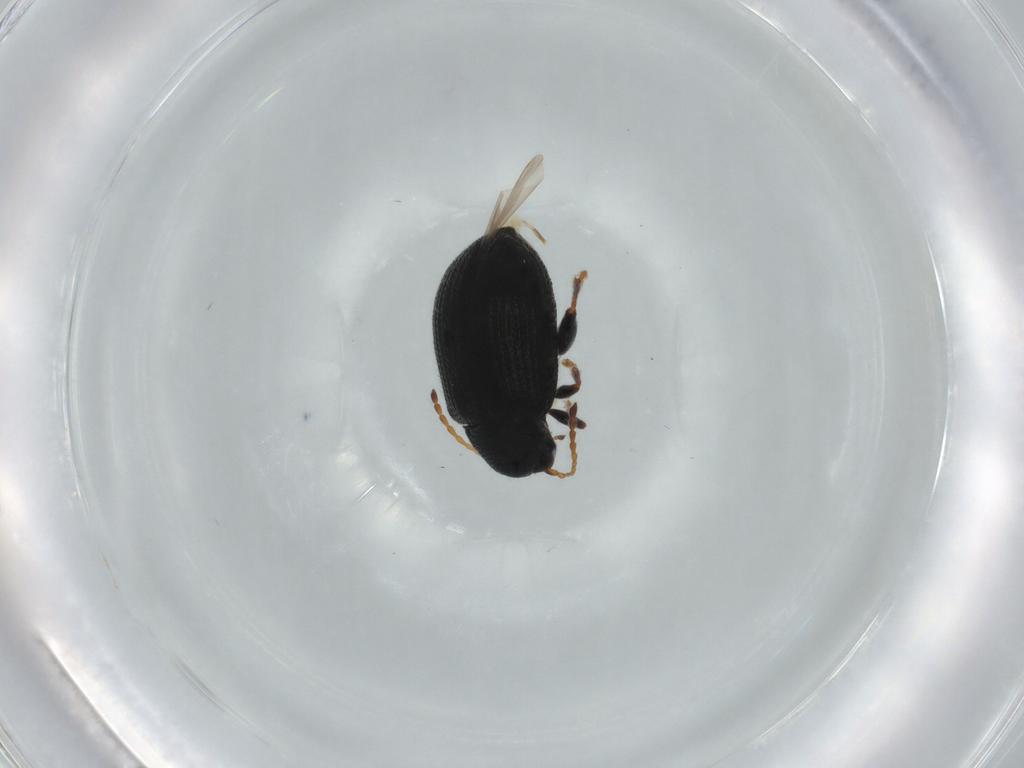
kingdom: Animalia
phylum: Arthropoda
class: Insecta
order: Coleoptera
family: Chrysomelidae
